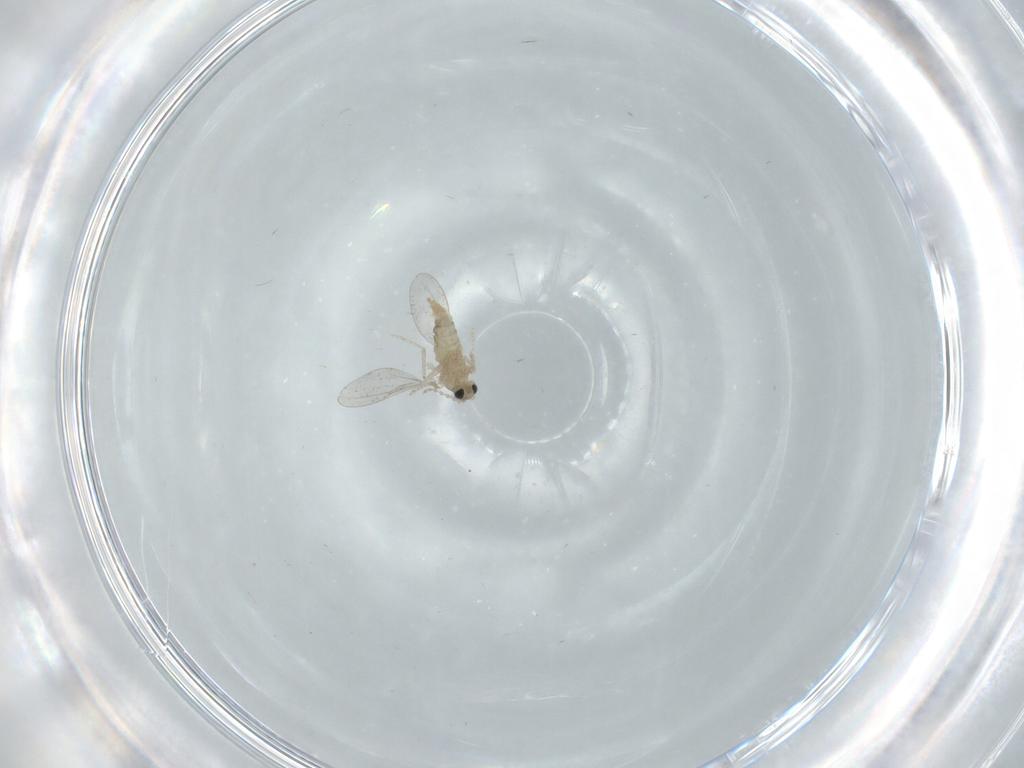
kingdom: Animalia
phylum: Arthropoda
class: Insecta
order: Diptera
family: Cecidomyiidae
